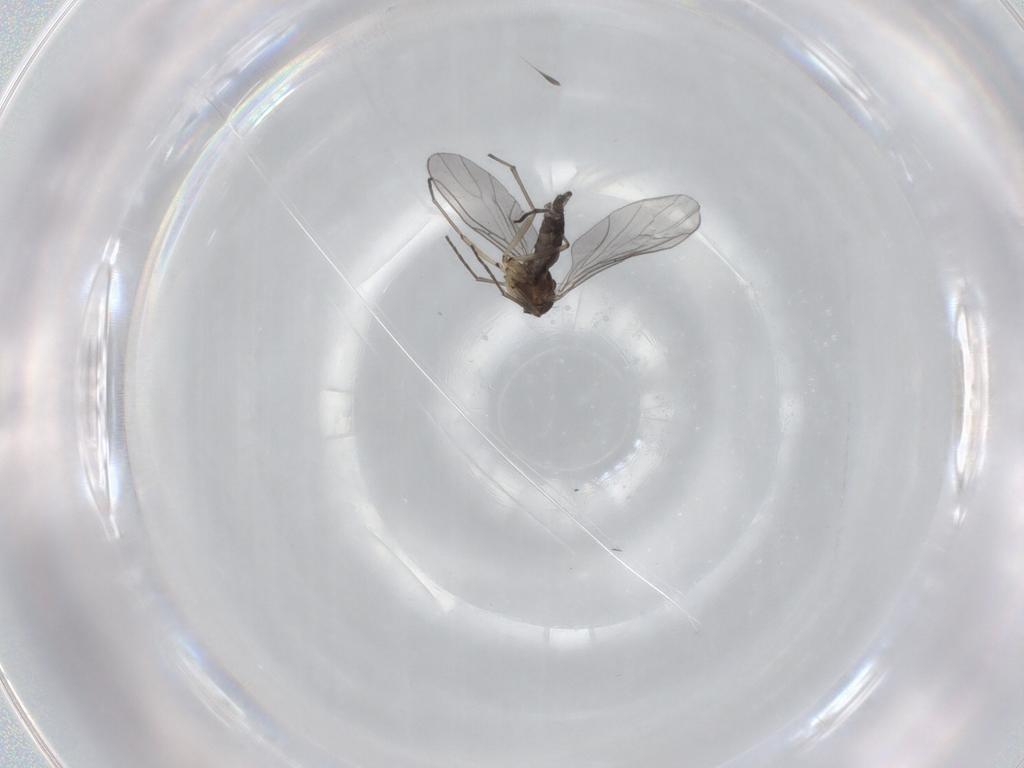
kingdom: Animalia
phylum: Arthropoda
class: Insecta
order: Diptera
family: Sciaridae
